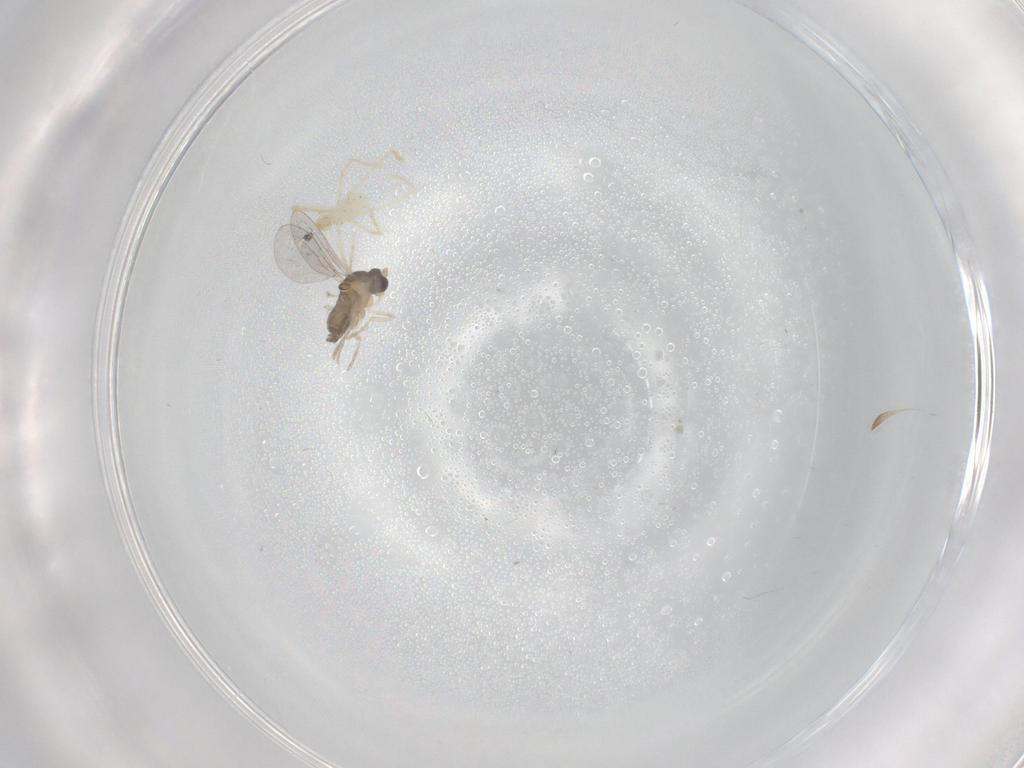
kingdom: Animalia
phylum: Arthropoda
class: Insecta
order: Diptera
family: Cecidomyiidae
